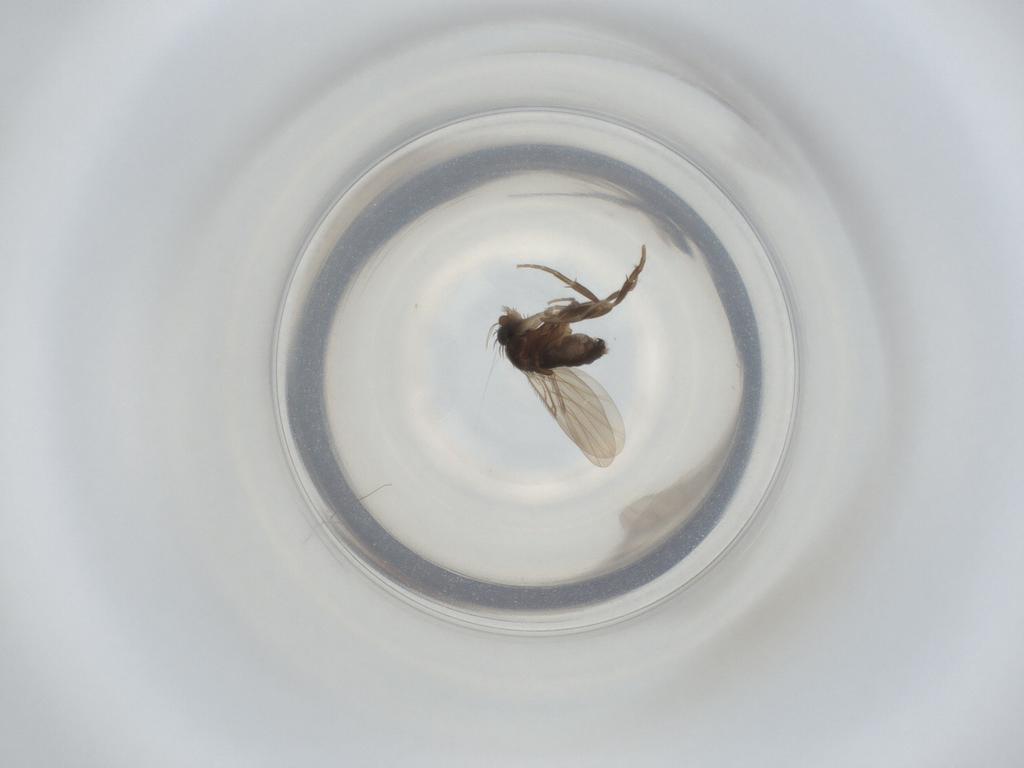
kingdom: Animalia
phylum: Arthropoda
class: Insecta
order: Diptera
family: Phoridae
